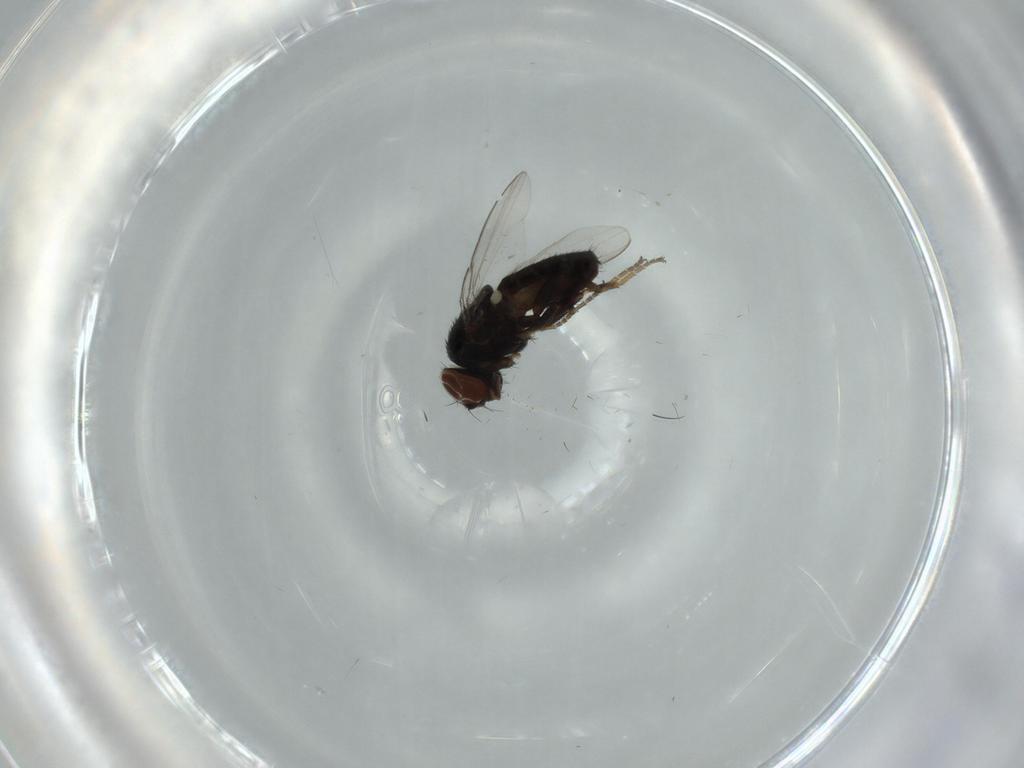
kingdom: Animalia
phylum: Arthropoda
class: Insecta
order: Diptera
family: Milichiidae
